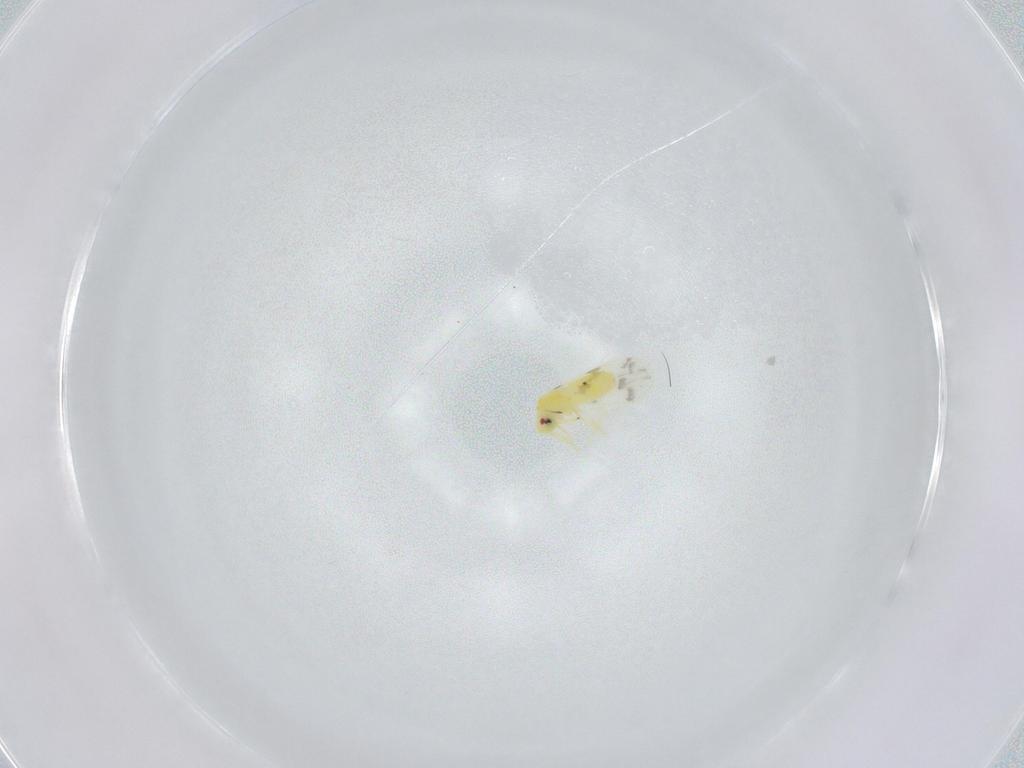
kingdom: Animalia
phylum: Arthropoda
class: Insecta
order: Hemiptera
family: Aleyrodidae
